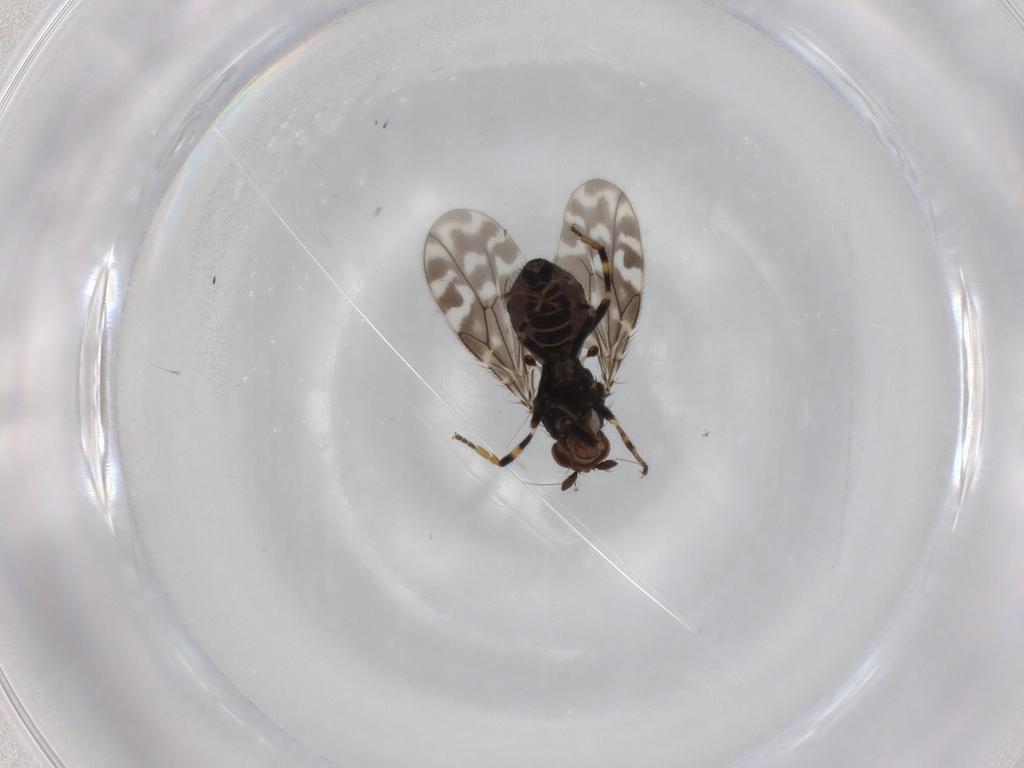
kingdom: Animalia
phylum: Arthropoda
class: Insecta
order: Diptera
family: Sphaeroceridae
